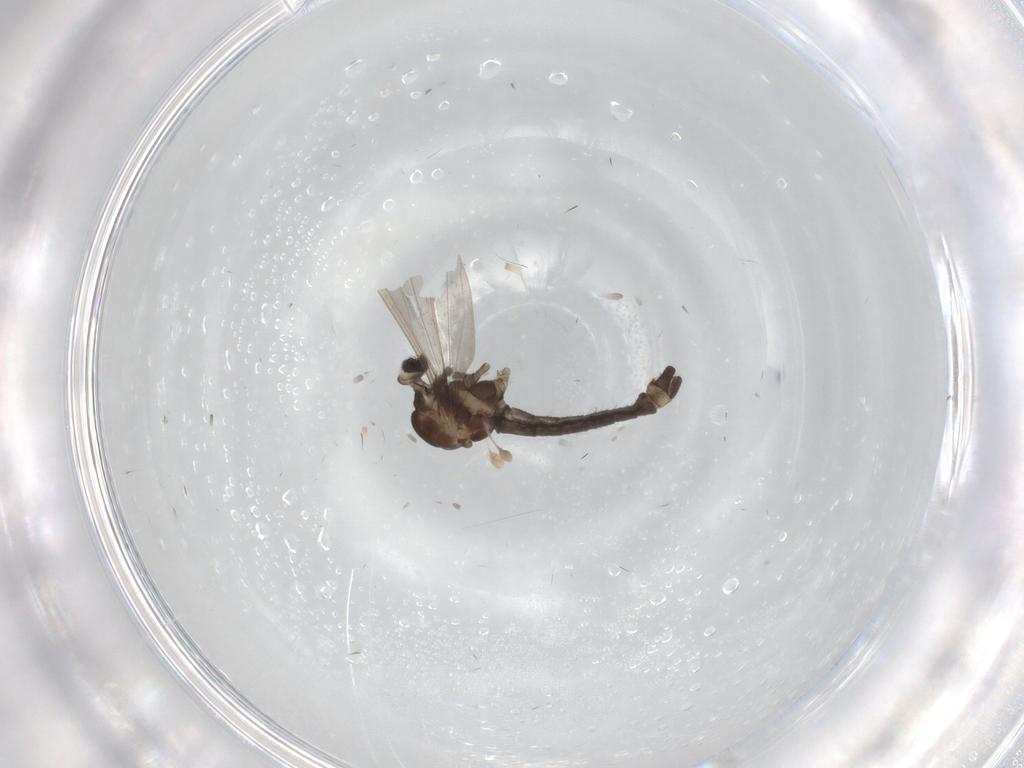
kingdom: Animalia
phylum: Arthropoda
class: Insecta
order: Diptera
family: Limoniidae
